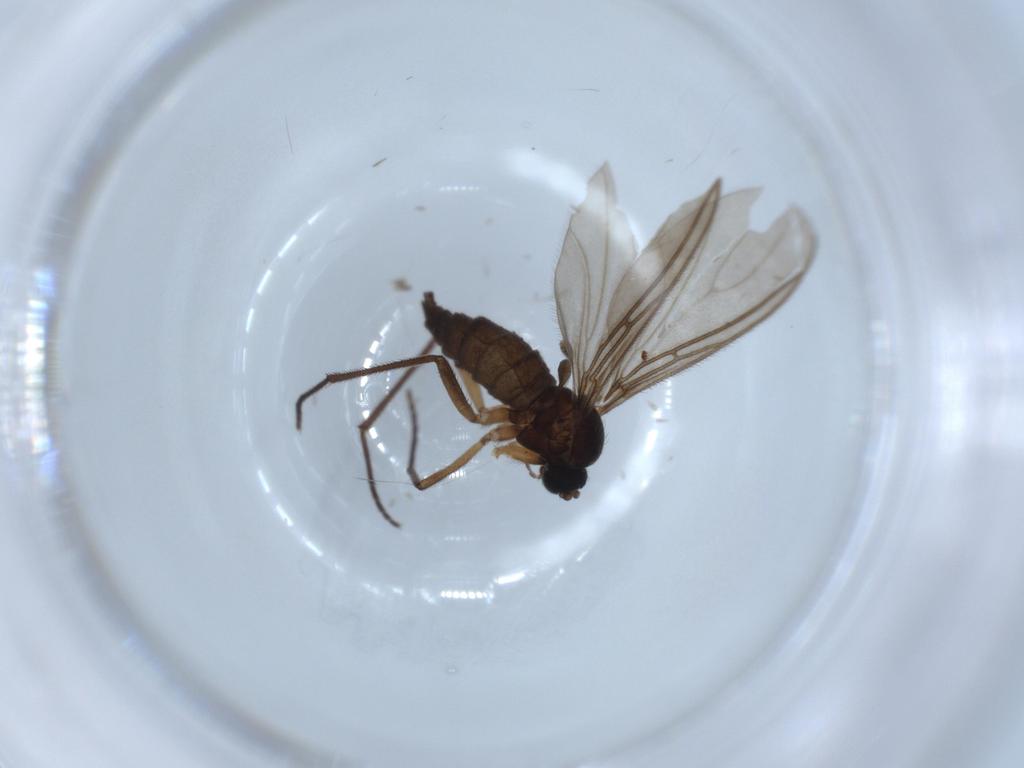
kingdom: Animalia
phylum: Arthropoda
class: Insecta
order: Diptera
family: Sciaridae
